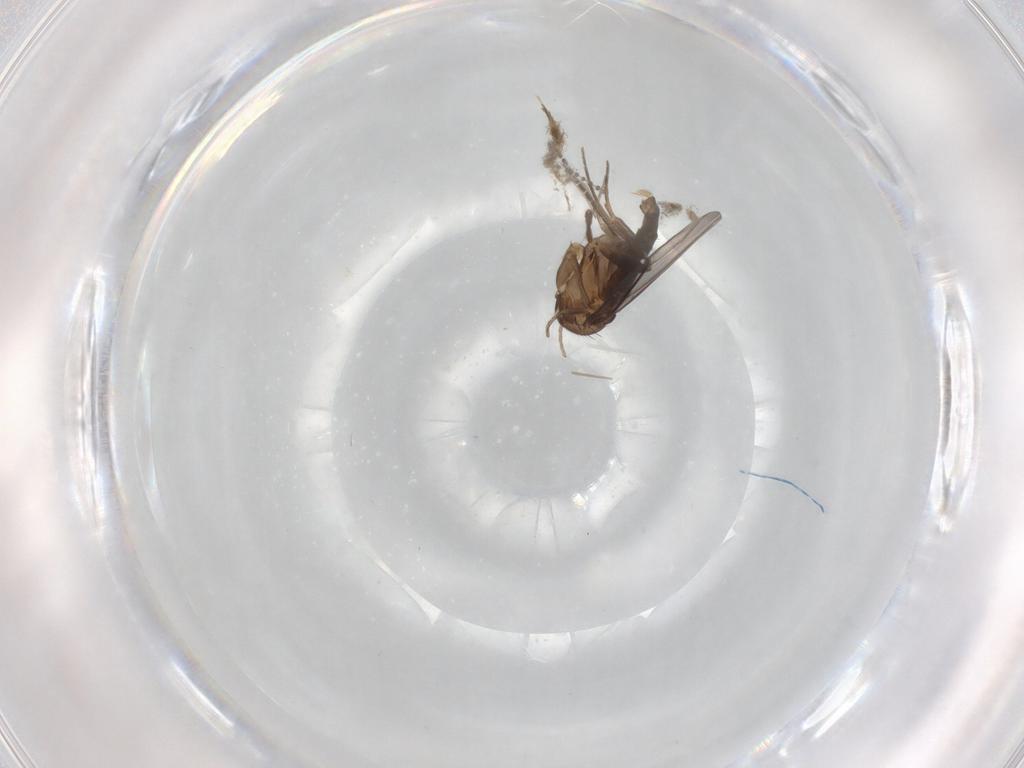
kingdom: Animalia
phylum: Arthropoda
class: Insecta
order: Diptera
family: Sciaridae
